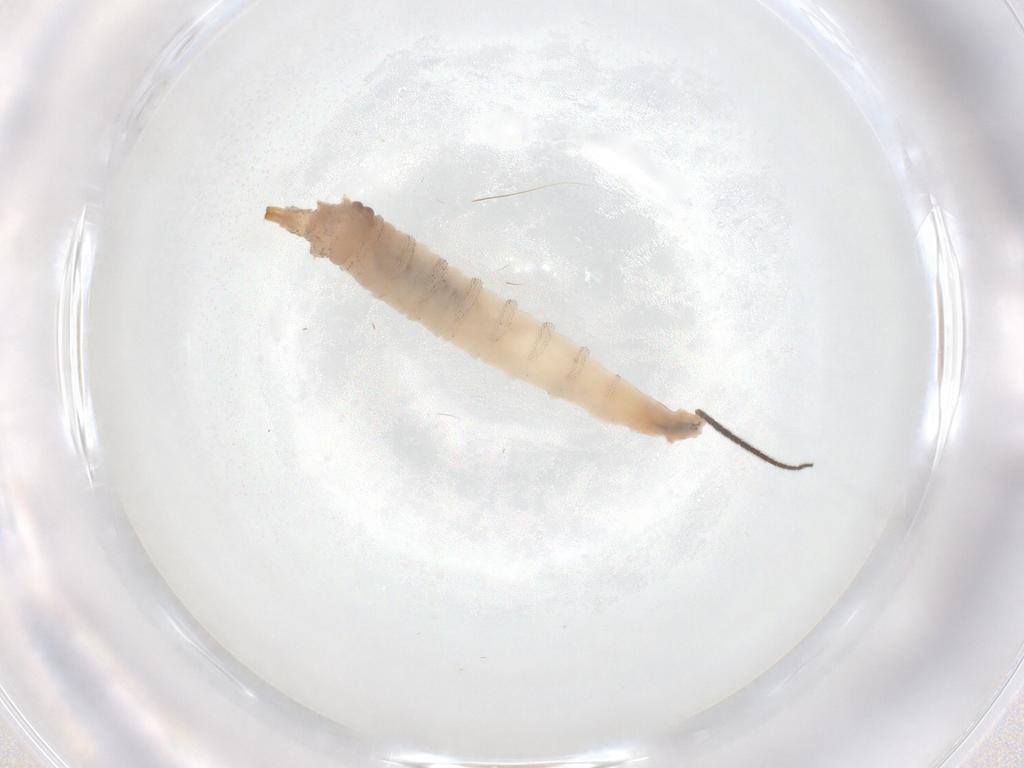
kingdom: Animalia
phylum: Arthropoda
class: Insecta
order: Diptera
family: Sciaridae
